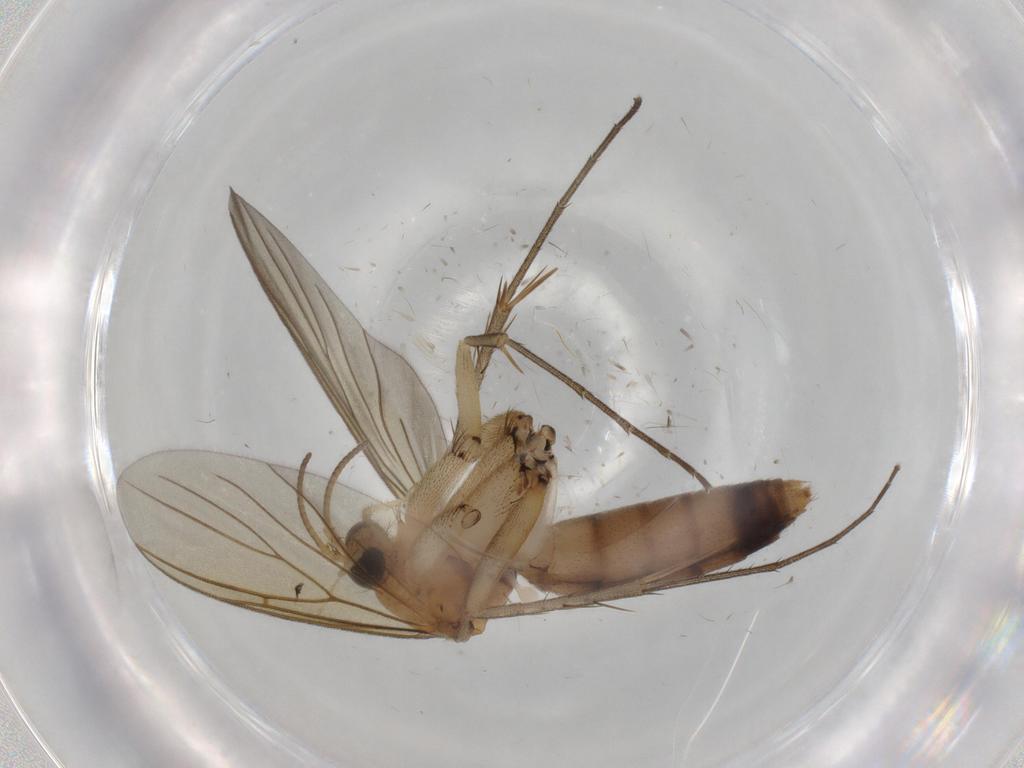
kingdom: Animalia
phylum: Arthropoda
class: Insecta
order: Diptera
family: Mycetophilidae
